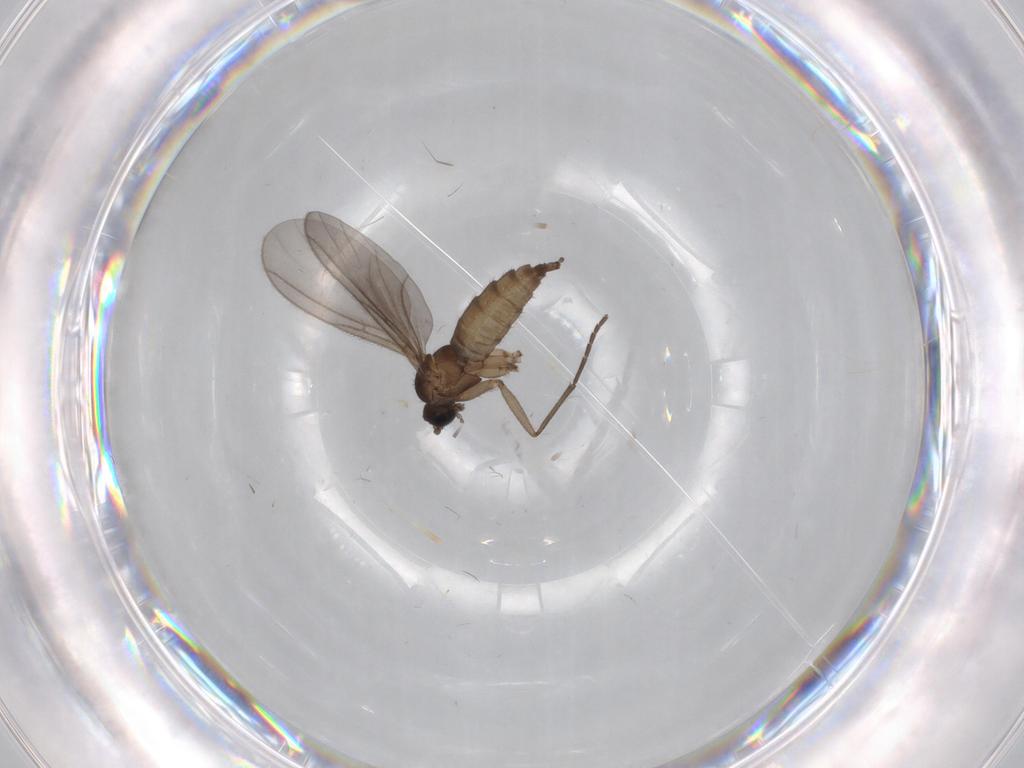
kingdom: Animalia
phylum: Arthropoda
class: Insecta
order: Diptera
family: Sciaridae
